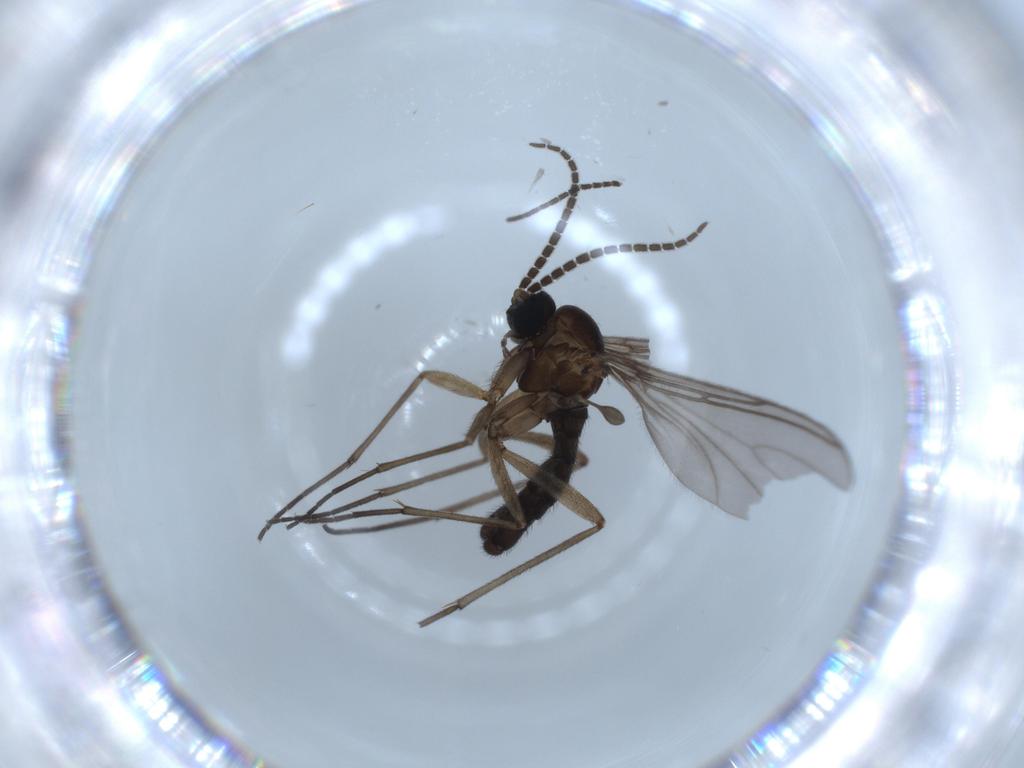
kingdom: Animalia
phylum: Arthropoda
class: Insecta
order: Diptera
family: Sciaridae
